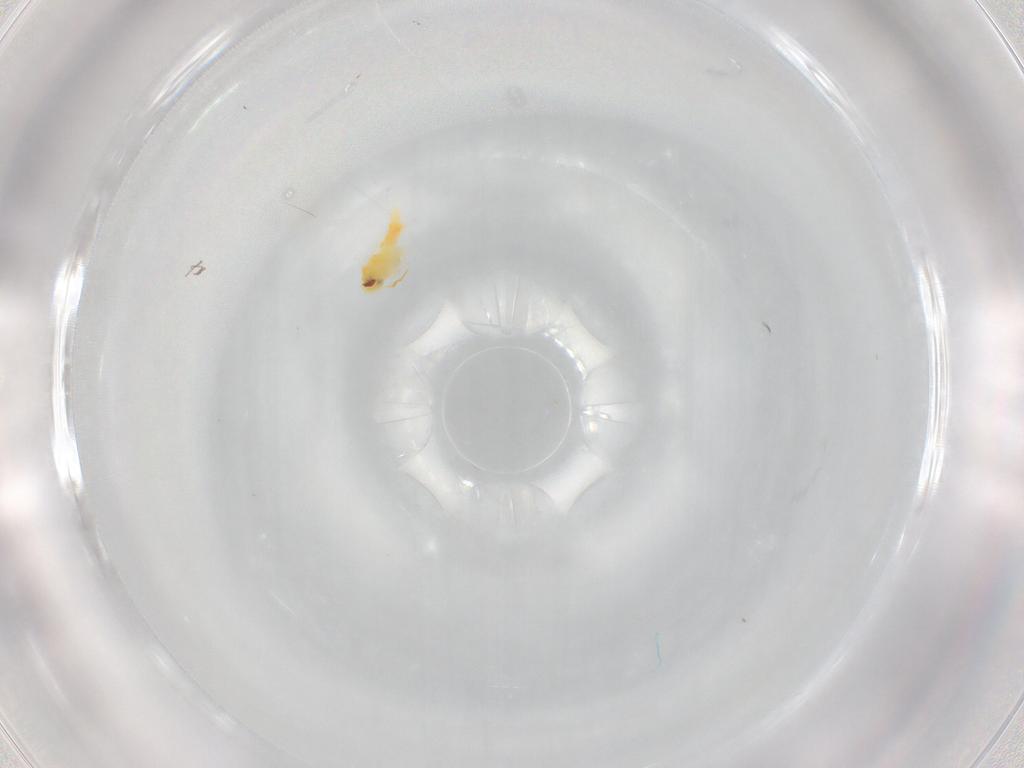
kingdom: Animalia
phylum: Arthropoda
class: Insecta
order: Hemiptera
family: Aleyrodidae
